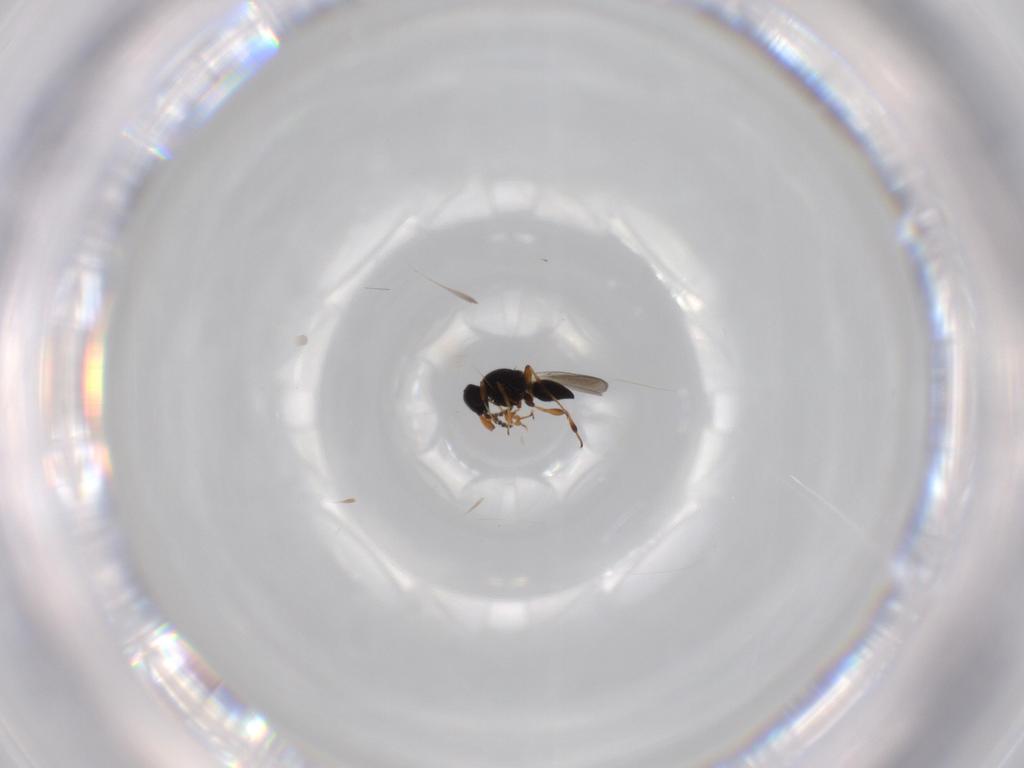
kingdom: Animalia
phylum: Arthropoda
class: Insecta
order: Hymenoptera
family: Platygastridae
